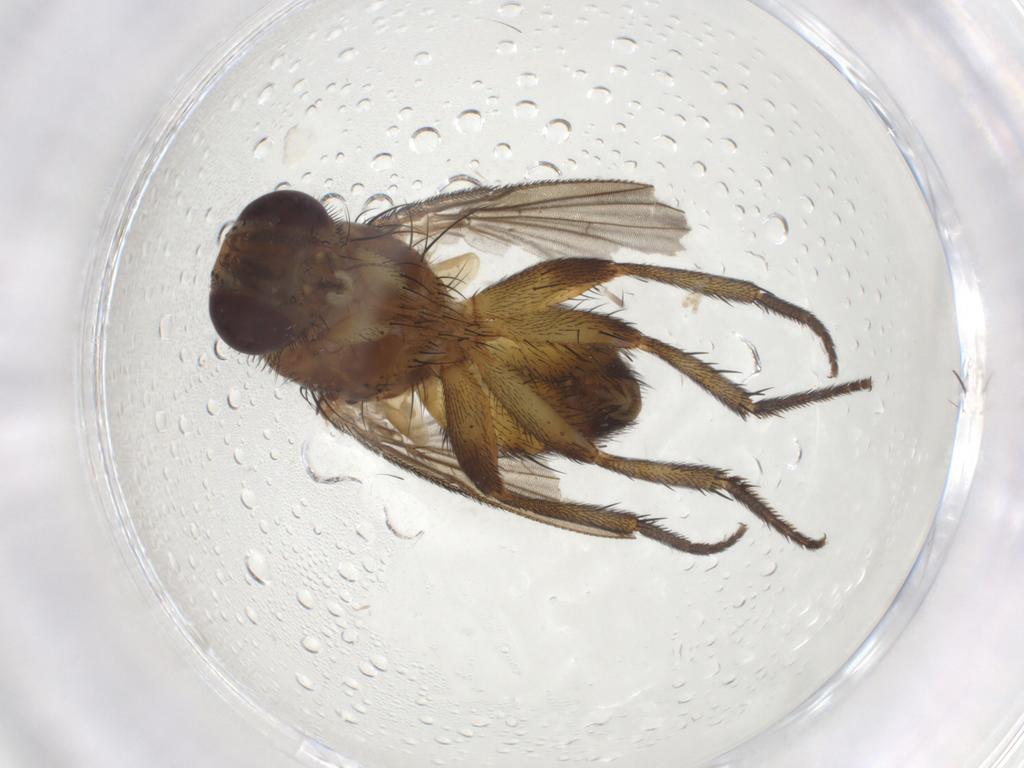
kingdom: Animalia
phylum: Arthropoda
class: Insecta
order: Diptera
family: Tachinidae
